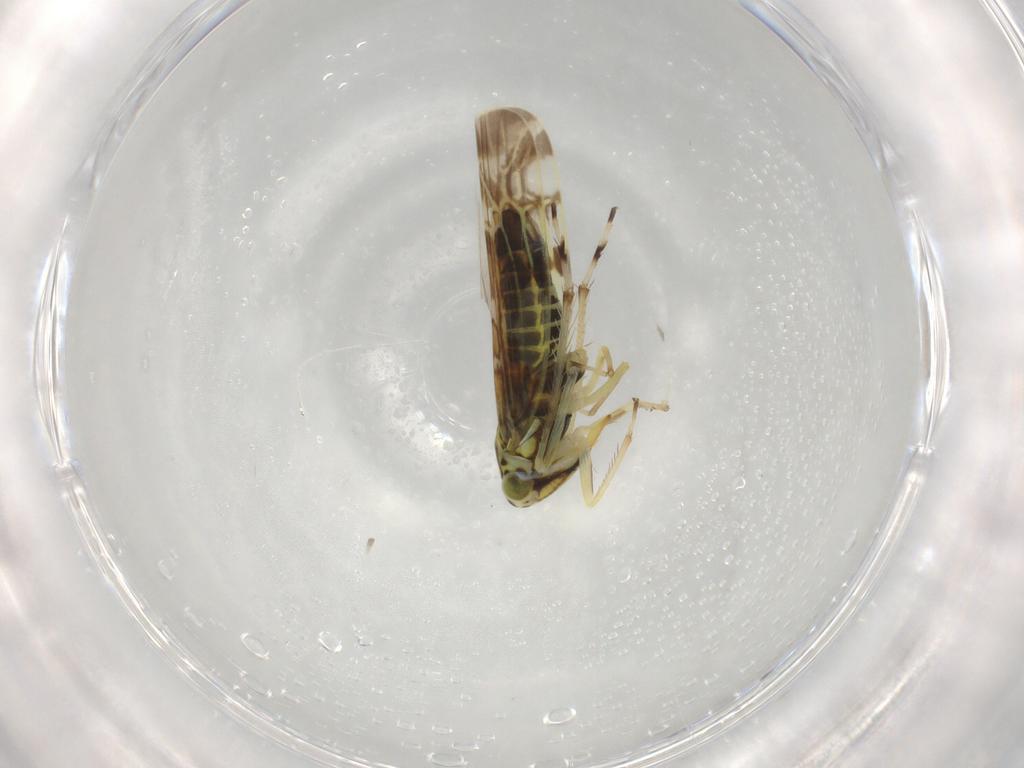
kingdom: Animalia
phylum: Arthropoda
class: Insecta
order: Hemiptera
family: Cicadellidae
